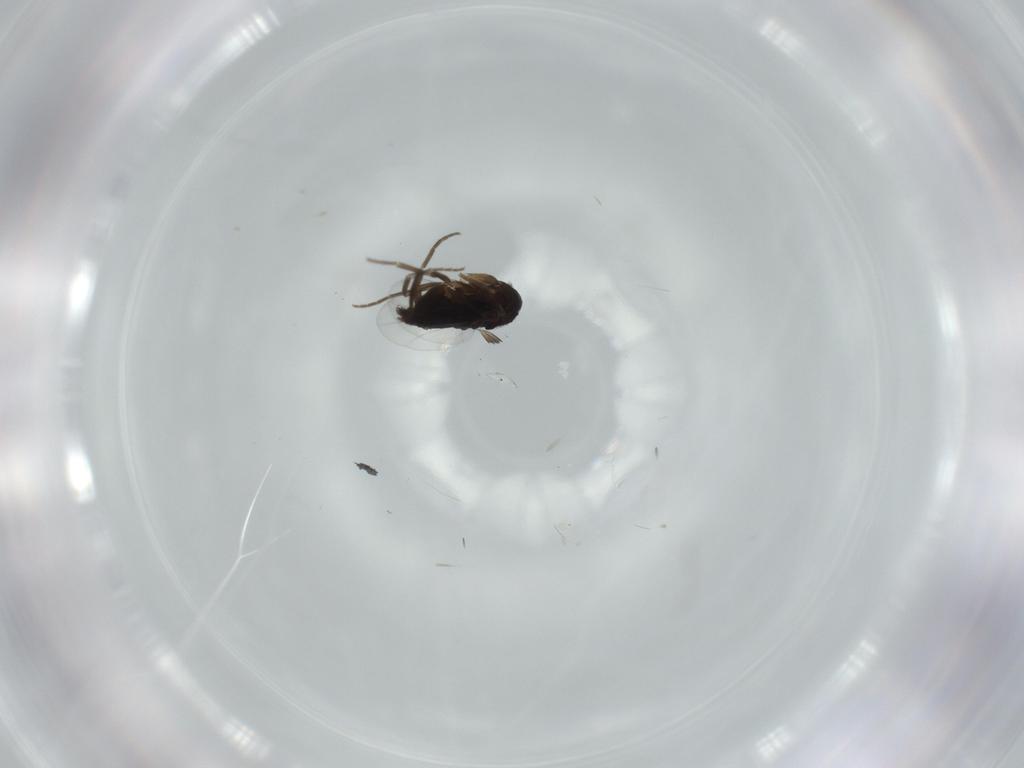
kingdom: Animalia
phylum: Arthropoda
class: Insecta
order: Diptera
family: Phoridae
